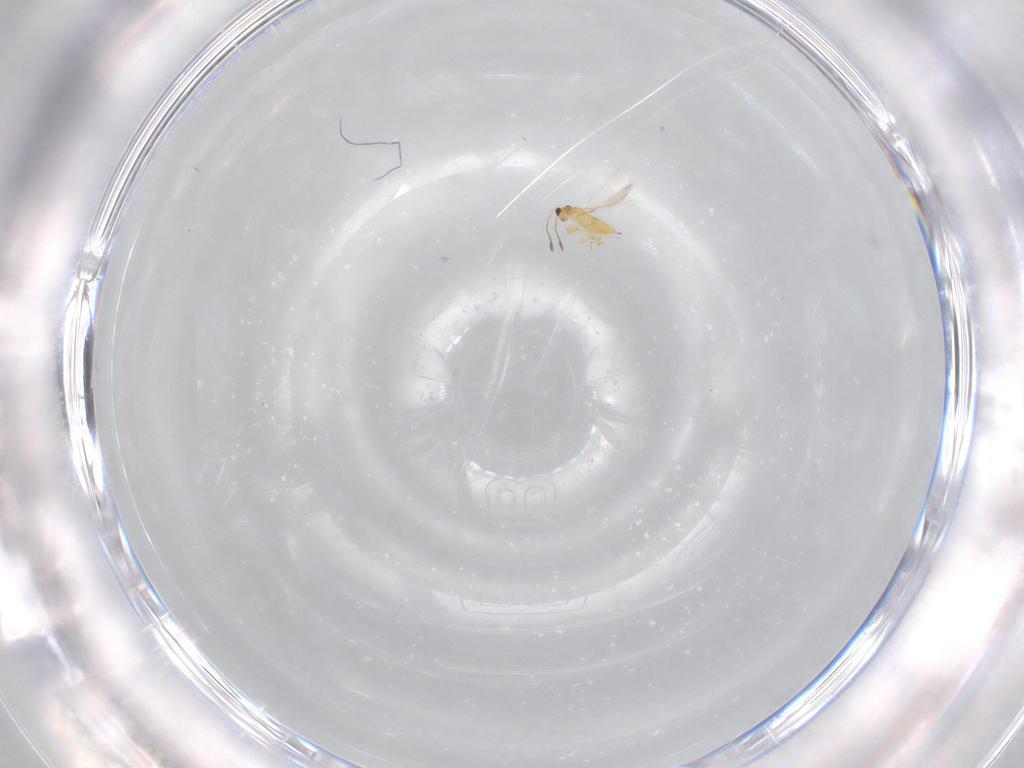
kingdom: Animalia
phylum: Arthropoda
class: Insecta
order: Hymenoptera
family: Mymaridae
